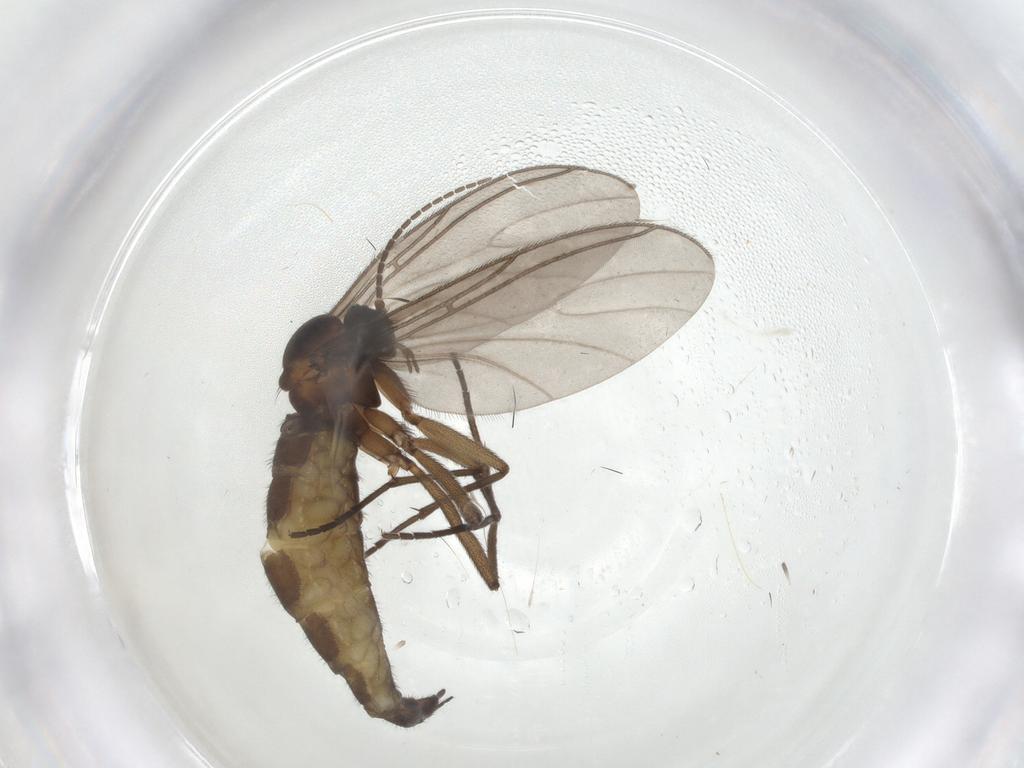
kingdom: Animalia
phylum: Arthropoda
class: Insecta
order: Diptera
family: Sciaridae
